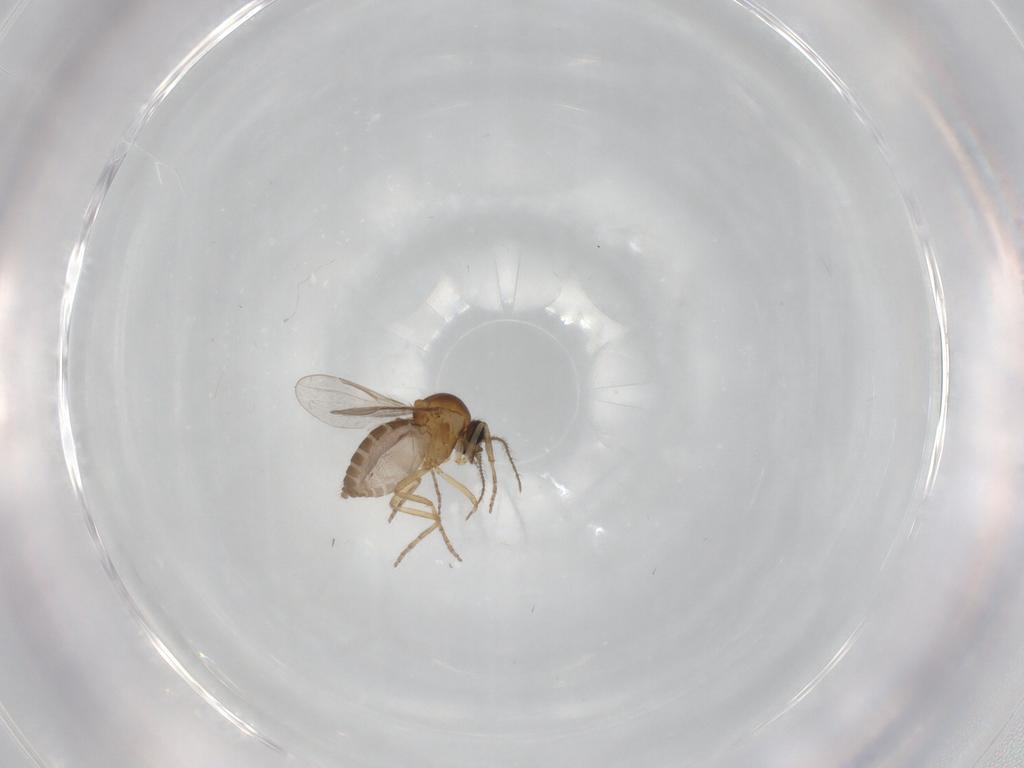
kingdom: Animalia
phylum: Arthropoda
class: Insecta
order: Diptera
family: Ceratopogonidae
